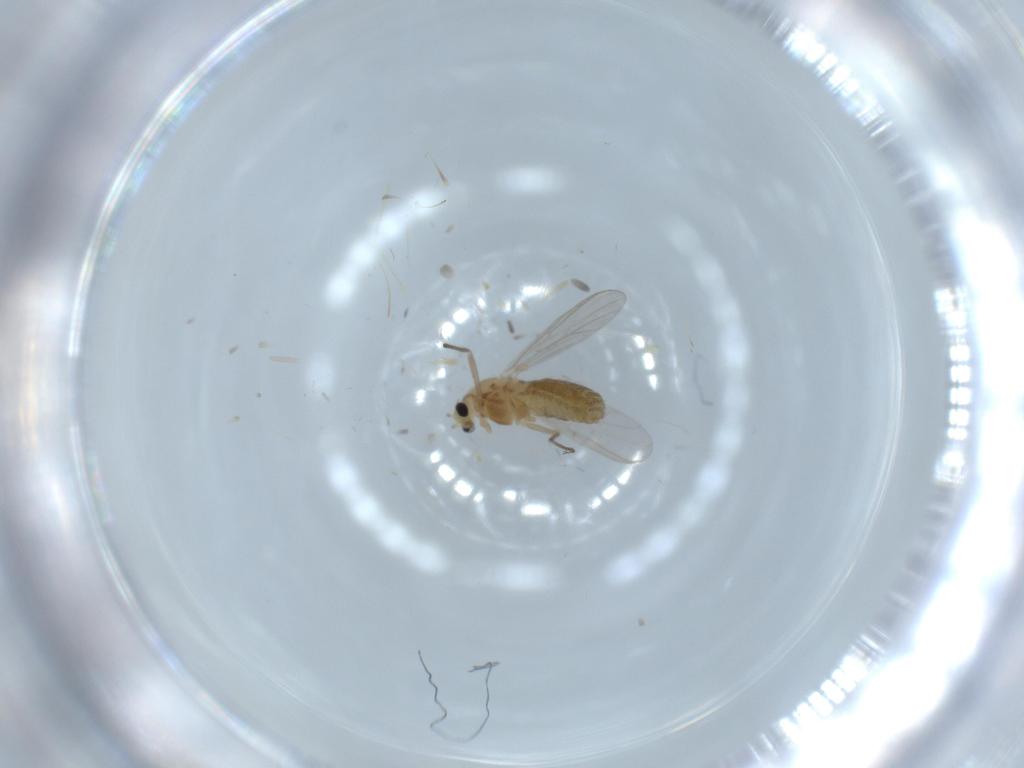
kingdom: Animalia
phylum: Arthropoda
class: Insecta
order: Diptera
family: Chironomidae
